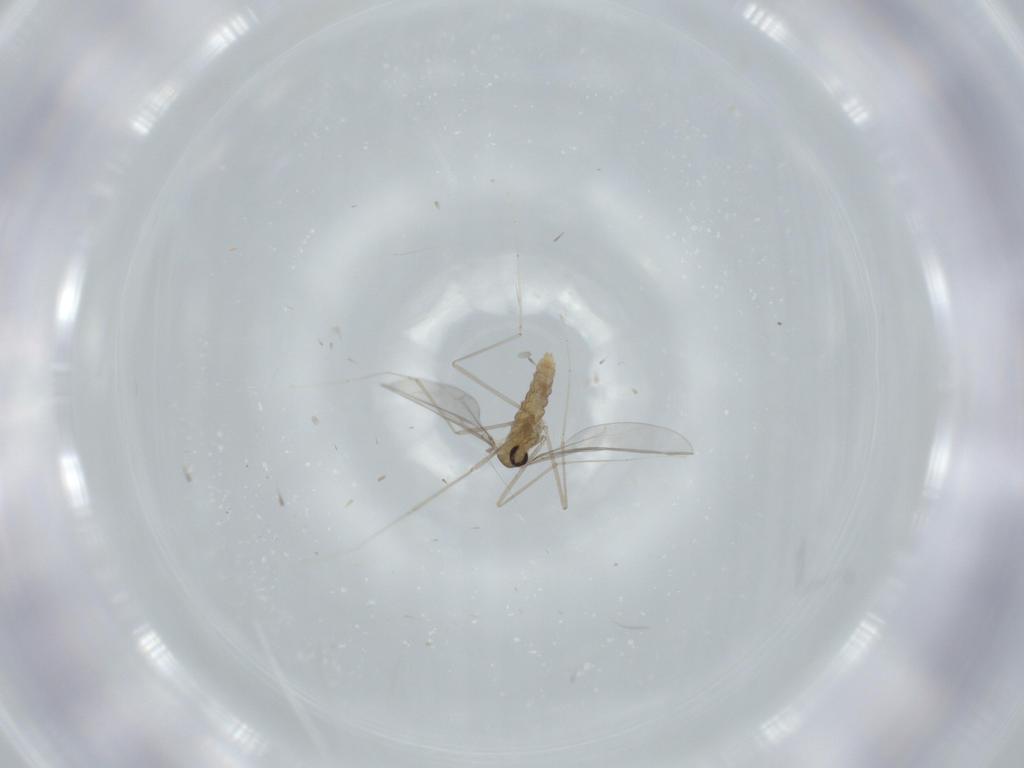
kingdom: Animalia
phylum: Arthropoda
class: Insecta
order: Diptera
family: Cecidomyiidae
